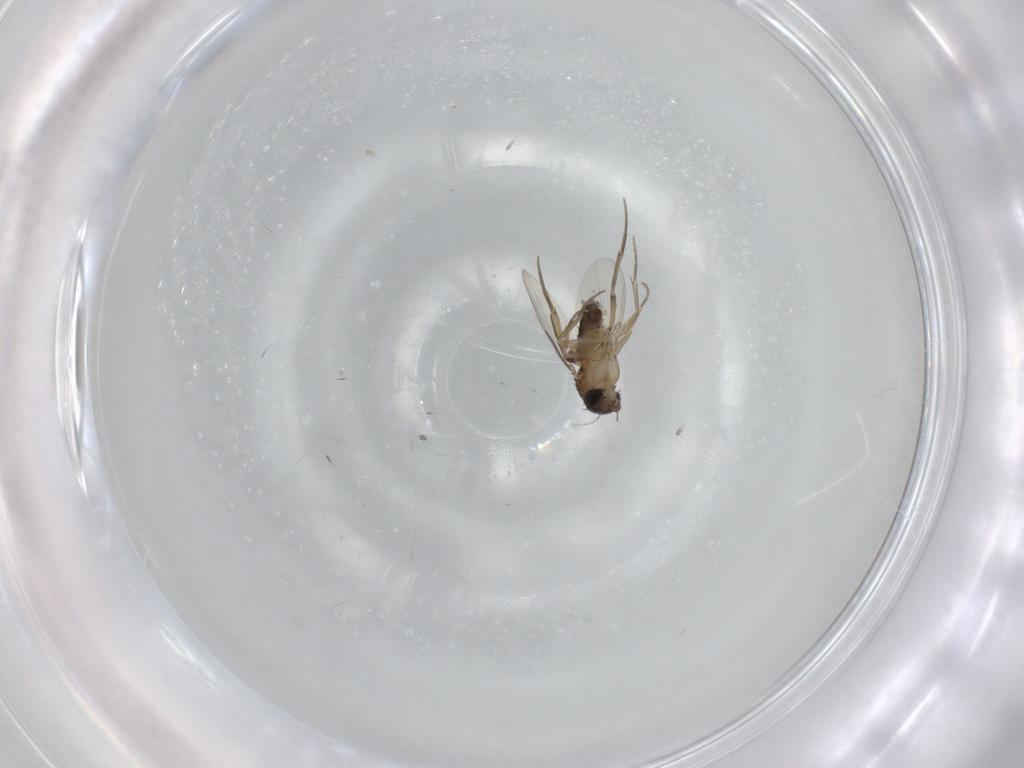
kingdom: Animalia
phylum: Arthropoda
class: Insecta
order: Diptera
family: Phoridae
